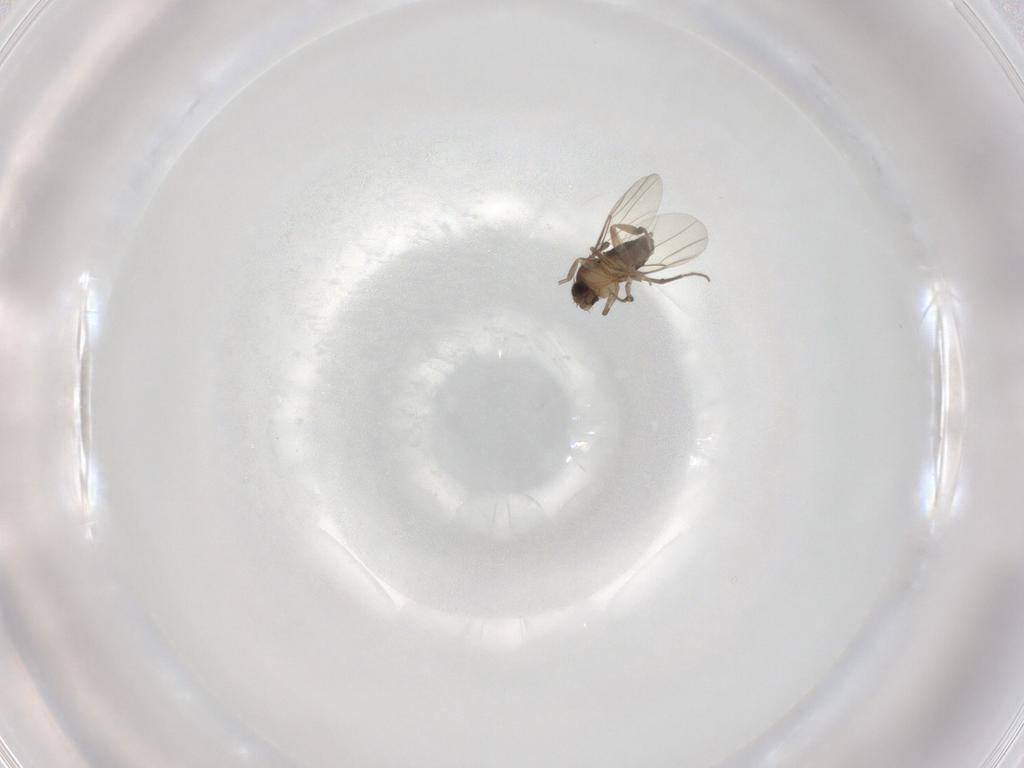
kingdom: Animalia
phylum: Arthropoda
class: Insecta
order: Diptera
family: Phoridae
